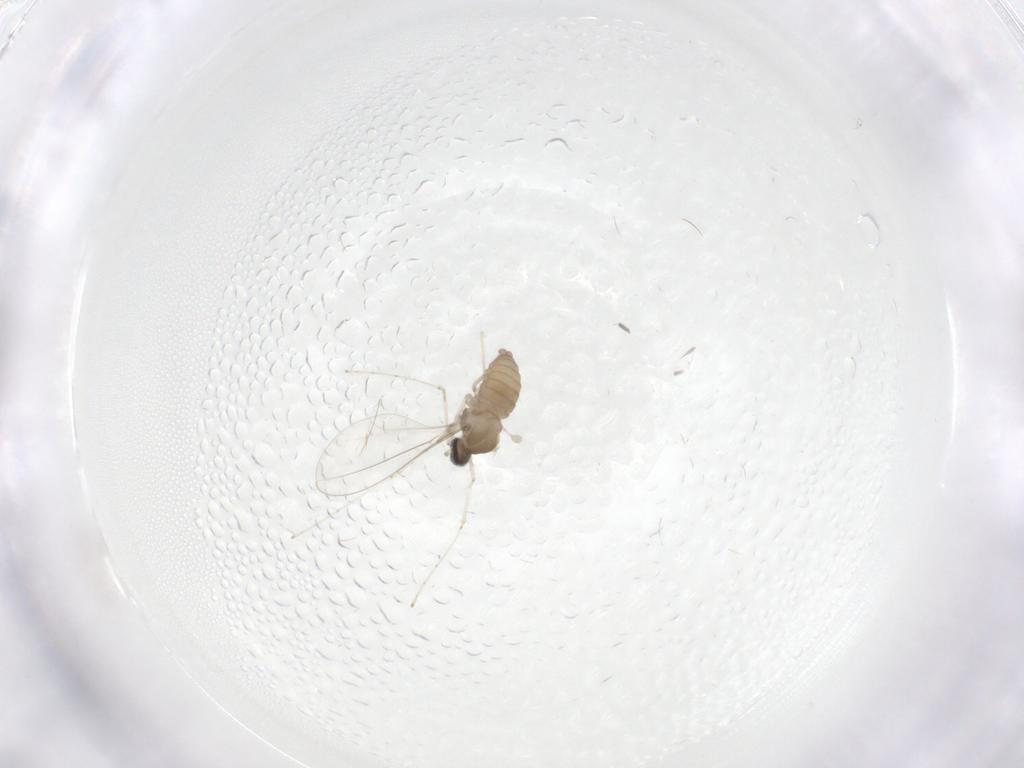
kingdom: Animalia
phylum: Arthropoda
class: Insecta
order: Diptera
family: Cecidomyiidae
